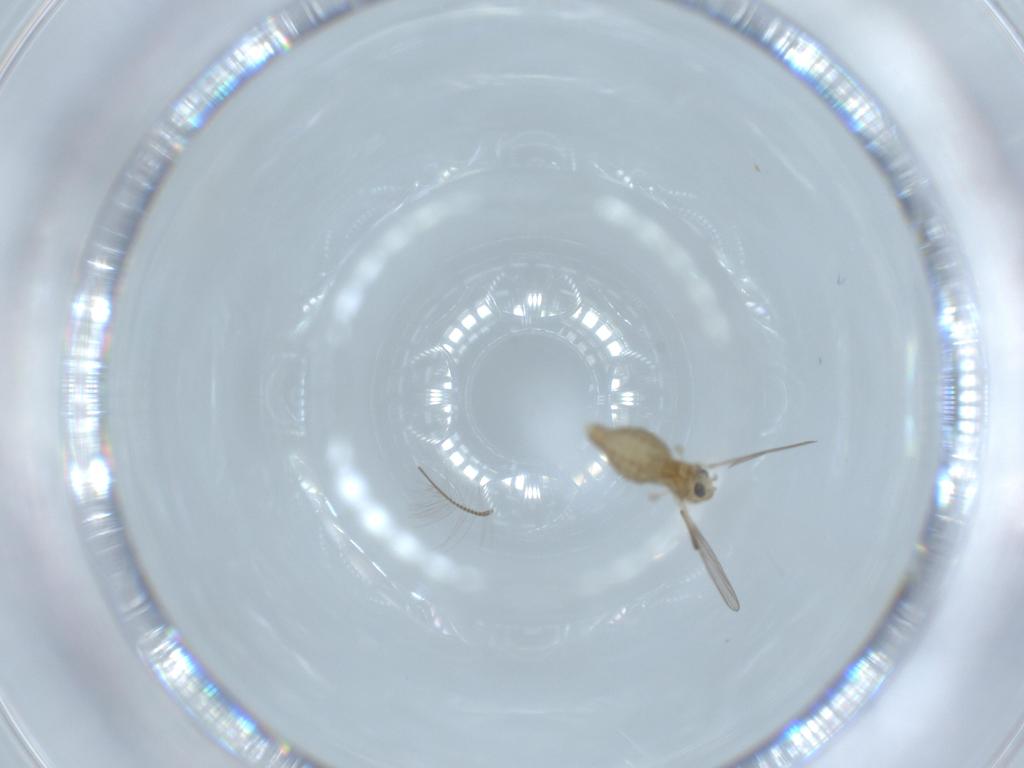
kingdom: Animalia
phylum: Arthropoda
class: Insecta
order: Diptera
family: Chironomidae
